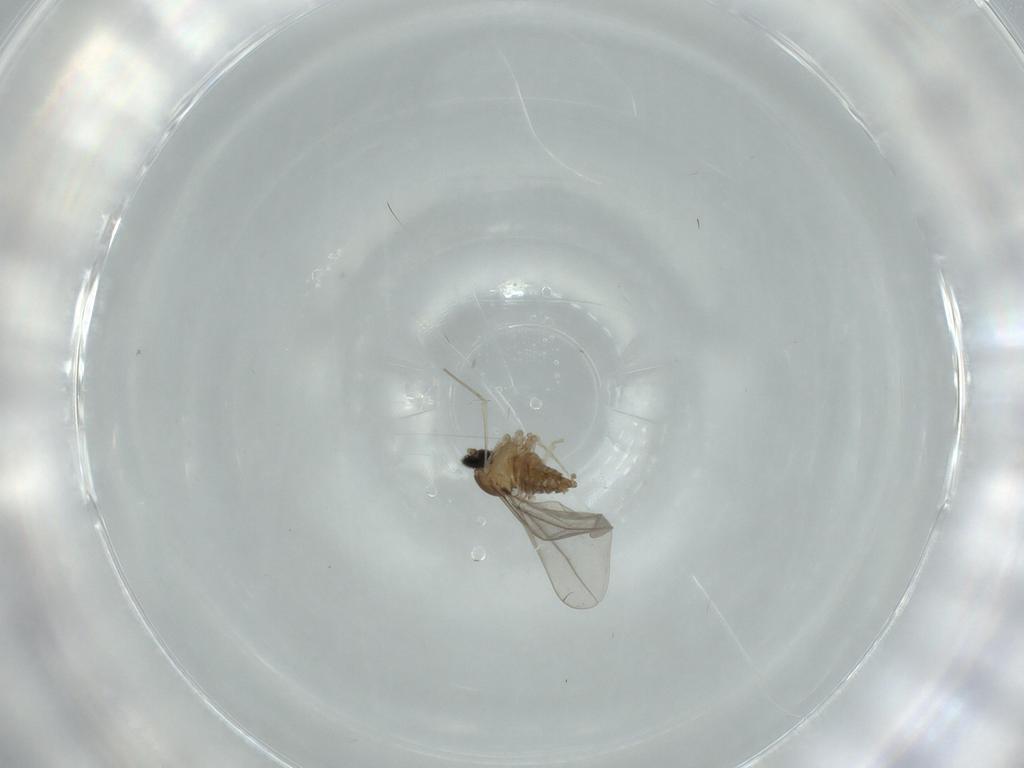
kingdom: Animalia
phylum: Arthropoda
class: Insecta
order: Diptera
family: Cecidomyiidae
